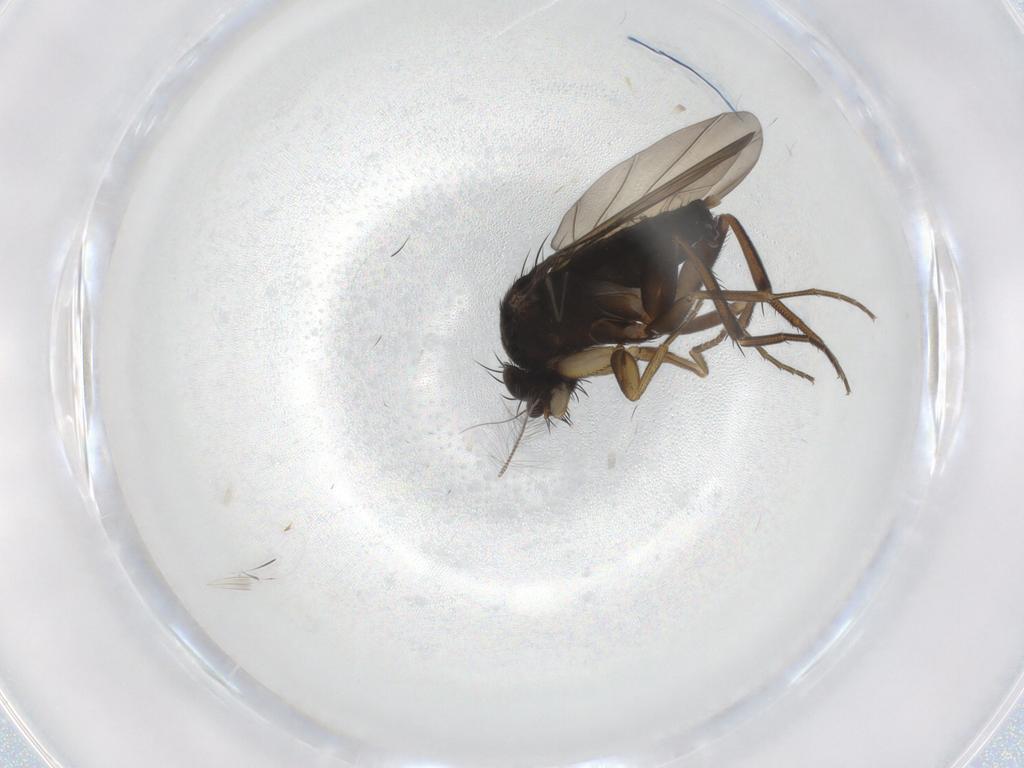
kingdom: Animalia
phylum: Arthropoda
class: Insecta
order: Diptera
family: Phoridae
